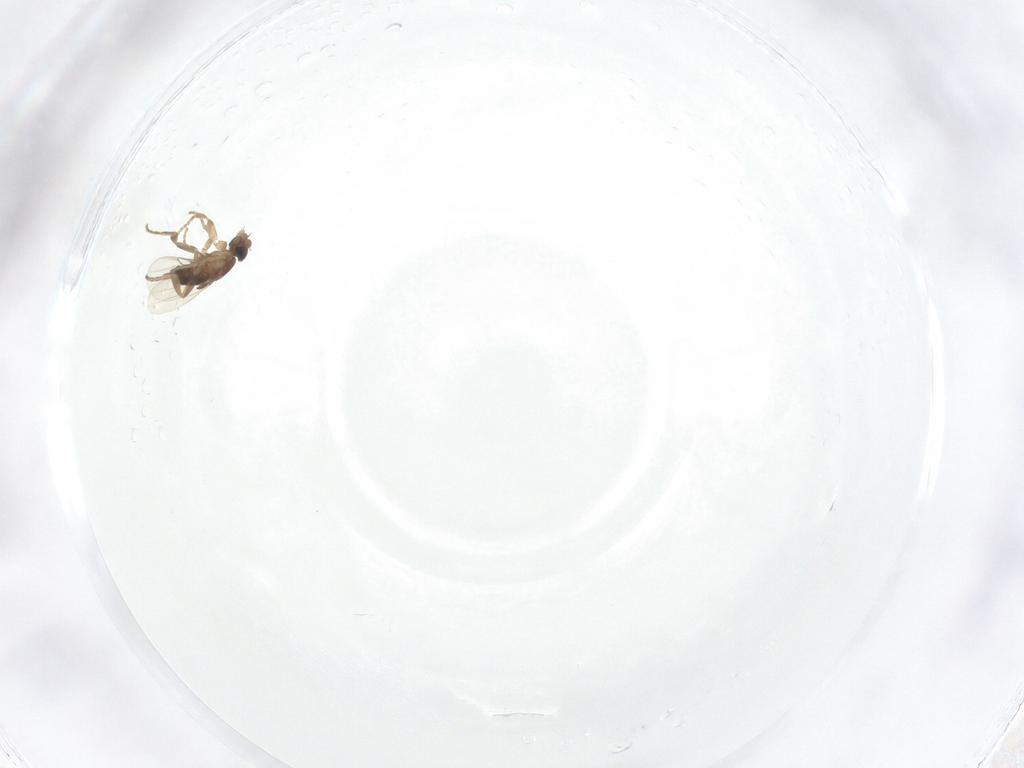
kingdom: Animalia
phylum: Arthropoda
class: Insecta
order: Diptera
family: Phoridae
